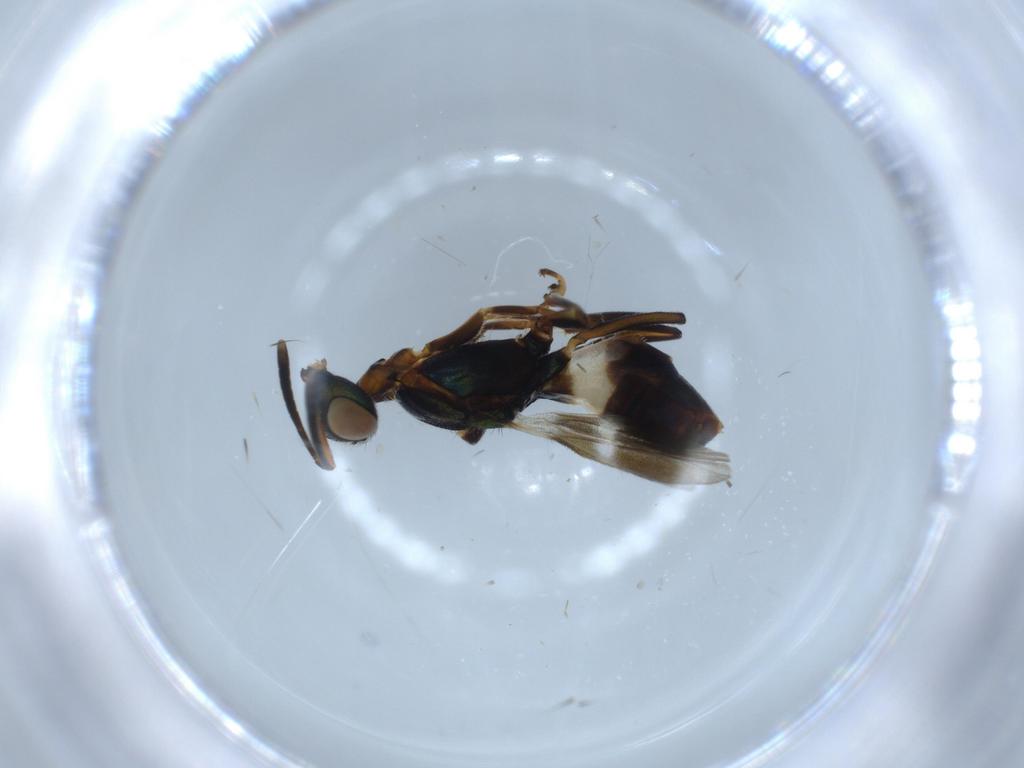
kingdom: Animalia
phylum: Arthropoda
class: Insecta
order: Hymenoptera
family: Eupelmidae
